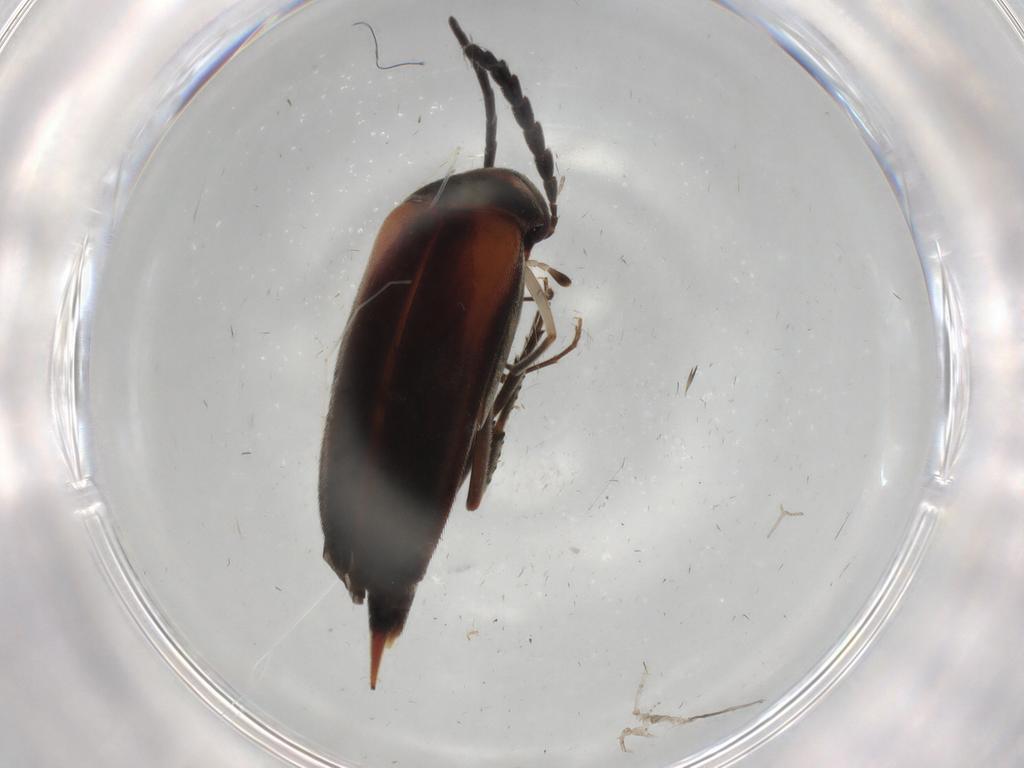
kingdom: Animalia
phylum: Arthropoda
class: Insecta
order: Coleoptera
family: Mordellidae
